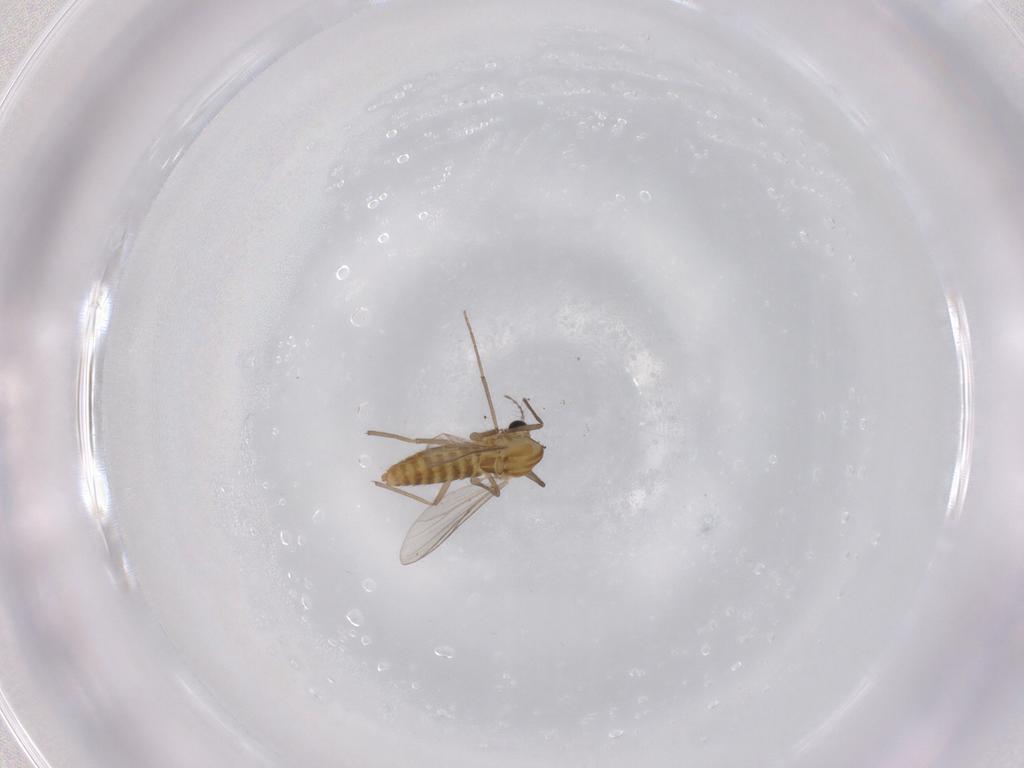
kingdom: Animalia
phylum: Arthropoda
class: Insecta
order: Diptera
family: Chironomidae
